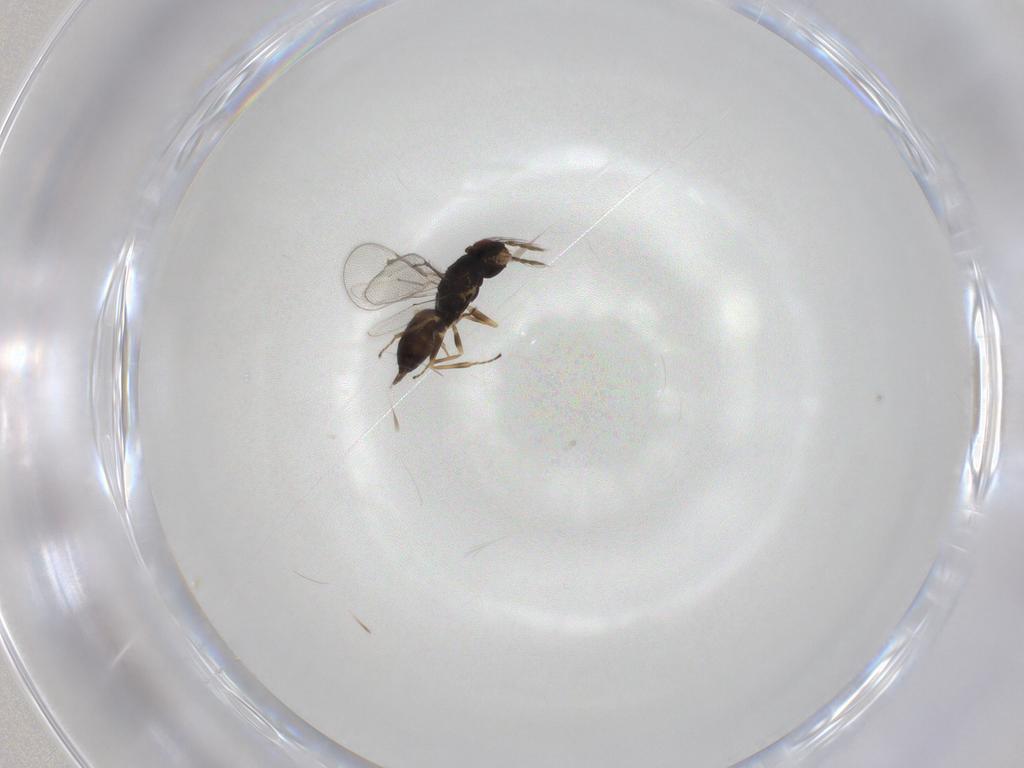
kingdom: Animalia
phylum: Arthropoda
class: Insecta
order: Hymenoptera
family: Eulophidae
